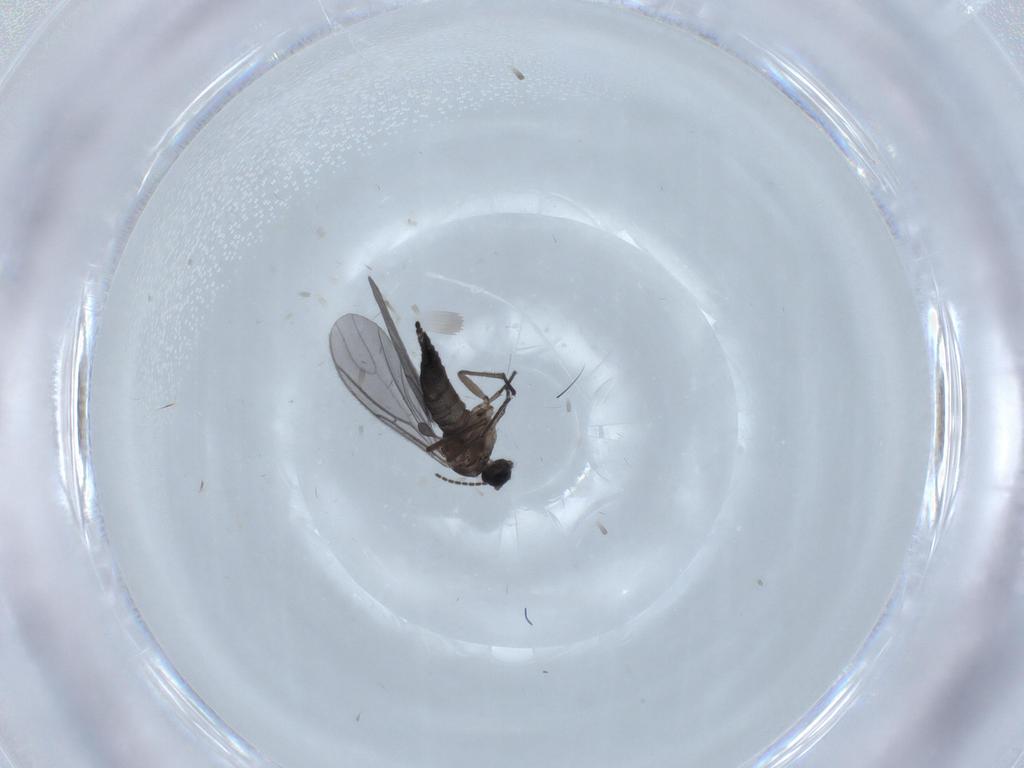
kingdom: Animalia
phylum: Arthropoda
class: Insecta
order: Diptera
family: Sciaridae
